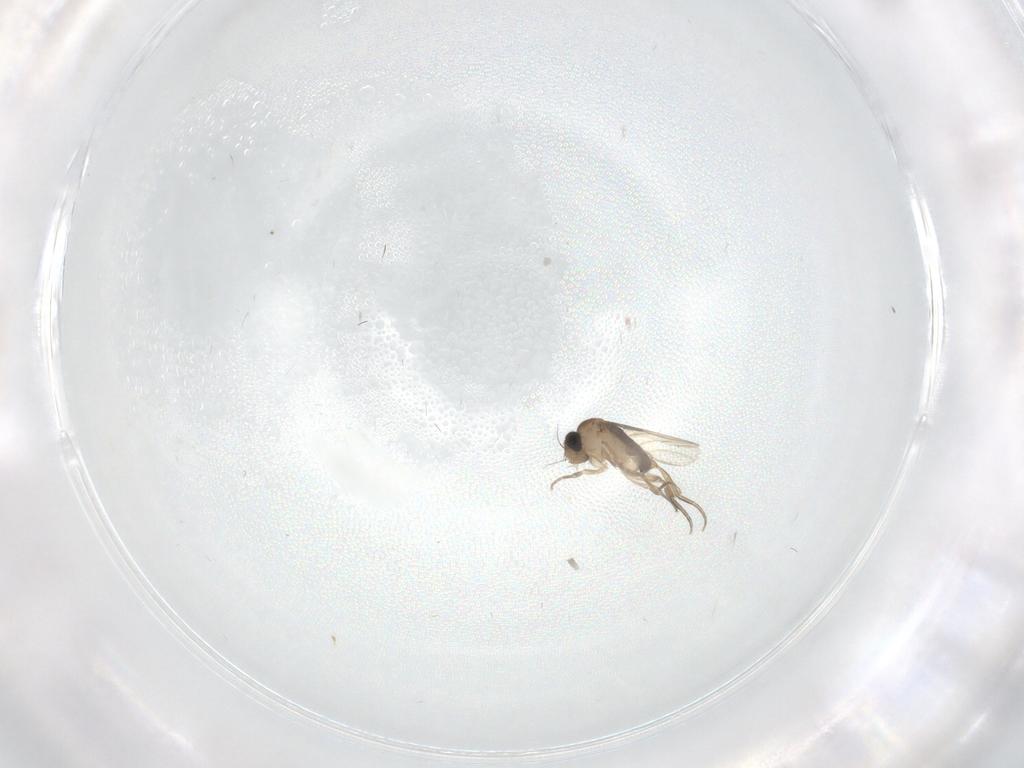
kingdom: Animalia
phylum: Arthropoda
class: Insecta
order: Diptera
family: Phoridae
